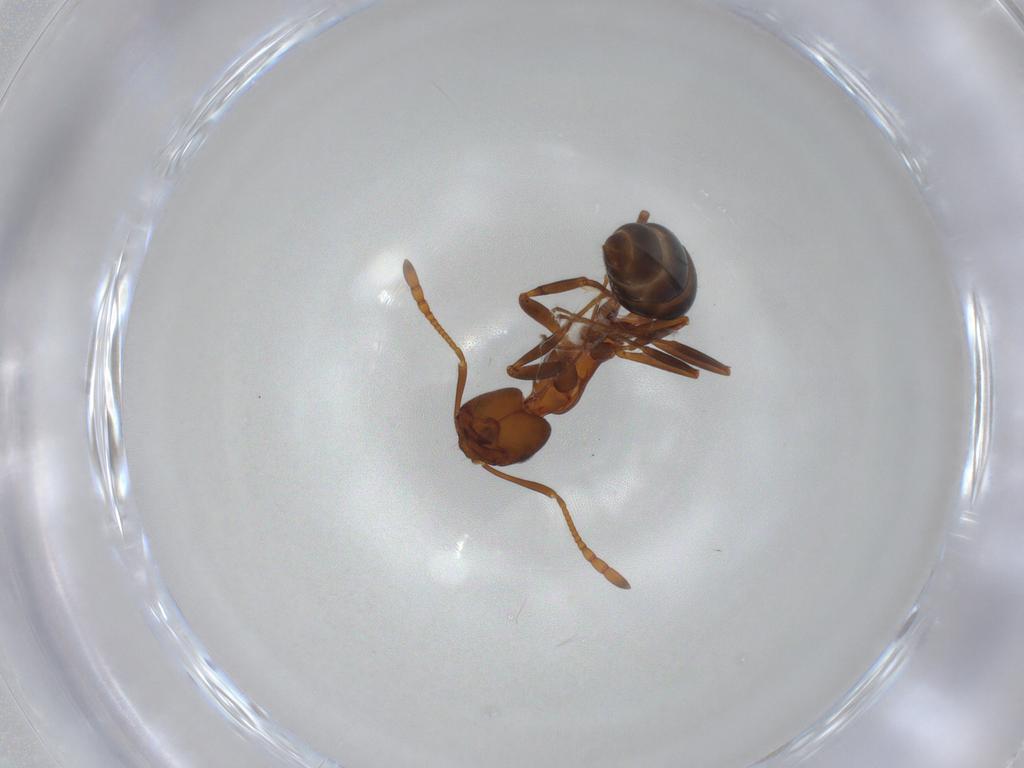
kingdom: Animalia
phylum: Arthropoda
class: Insecta
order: Hymenoptera
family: Formicidae
